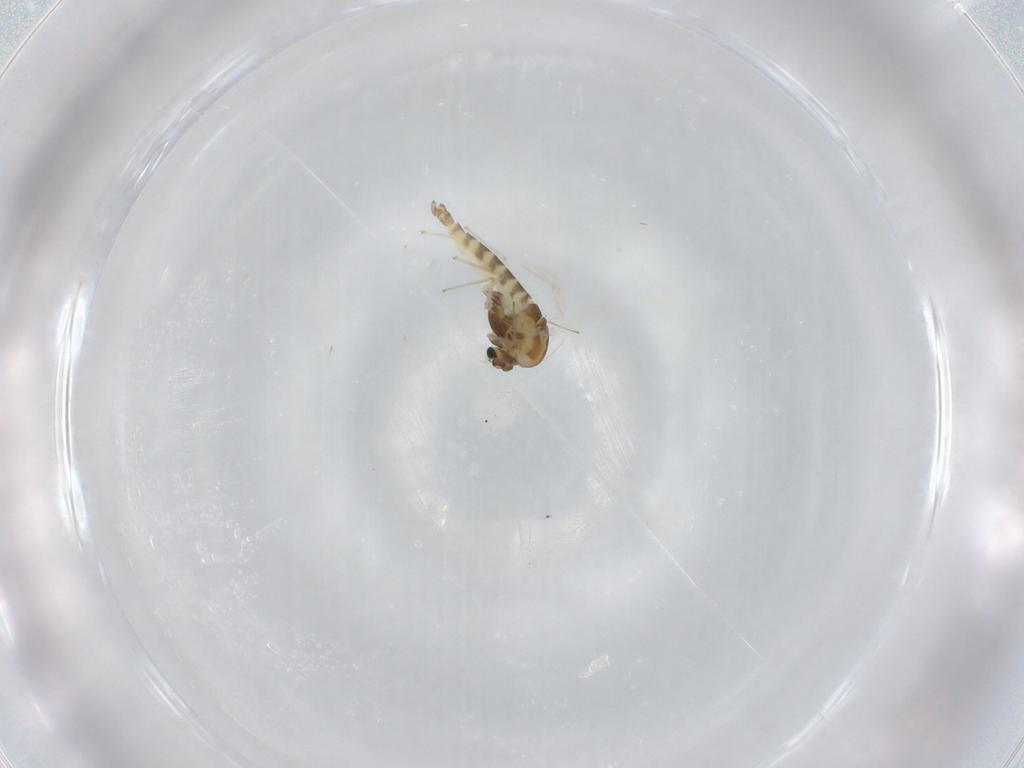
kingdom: Animalia
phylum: Arthropoda
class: Insecta
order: Diptera
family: Chironomidae
